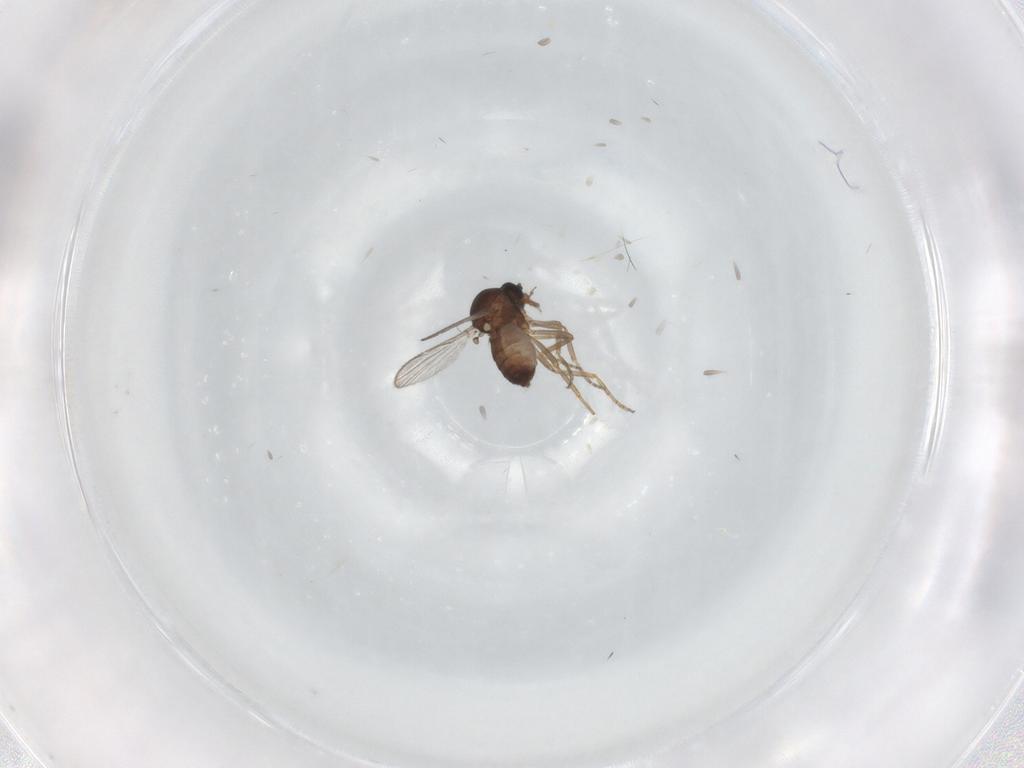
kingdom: Animalia
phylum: Arthropoda
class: Insecta
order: Diptera
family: Ceratopogonidae
